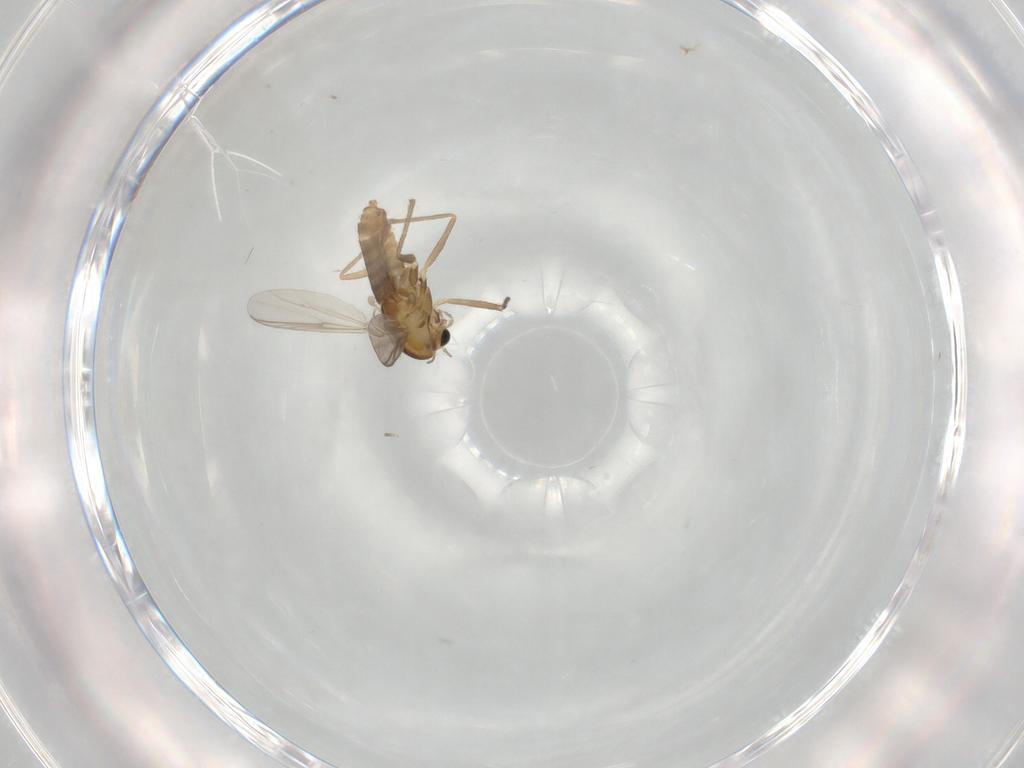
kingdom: Animalia
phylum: Arthropoda
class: Insecta
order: Diptera
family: Chironomidae
